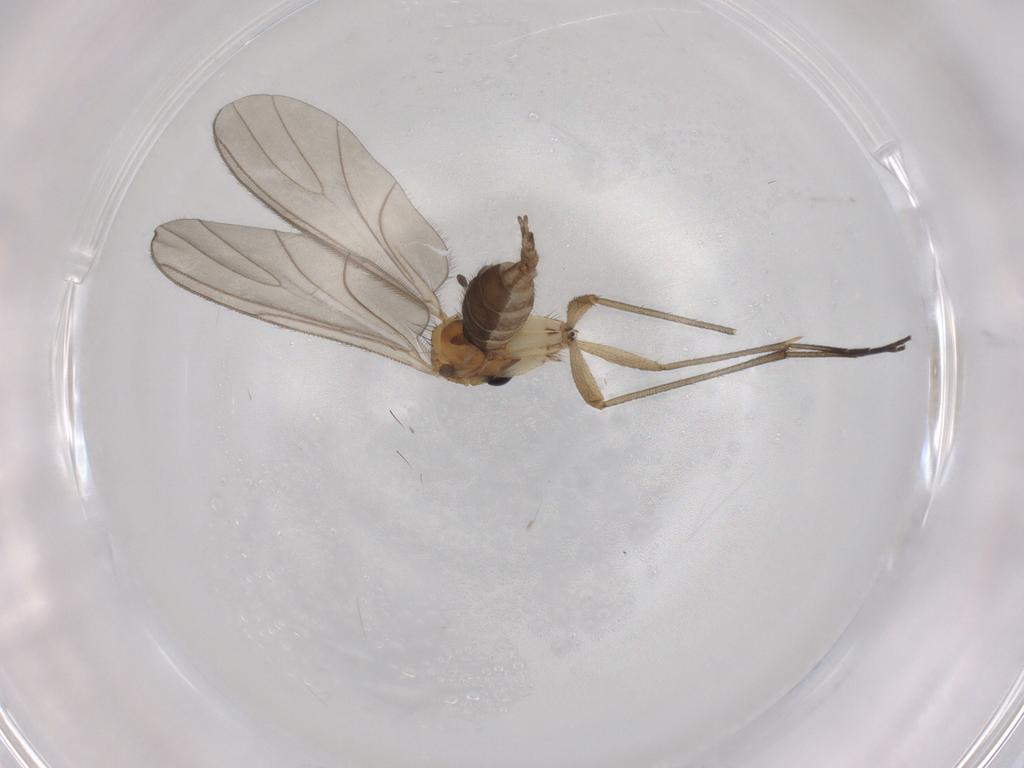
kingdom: Animalia
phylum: Arthropoda
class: Insecta
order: Diptera
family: Sciaridae
